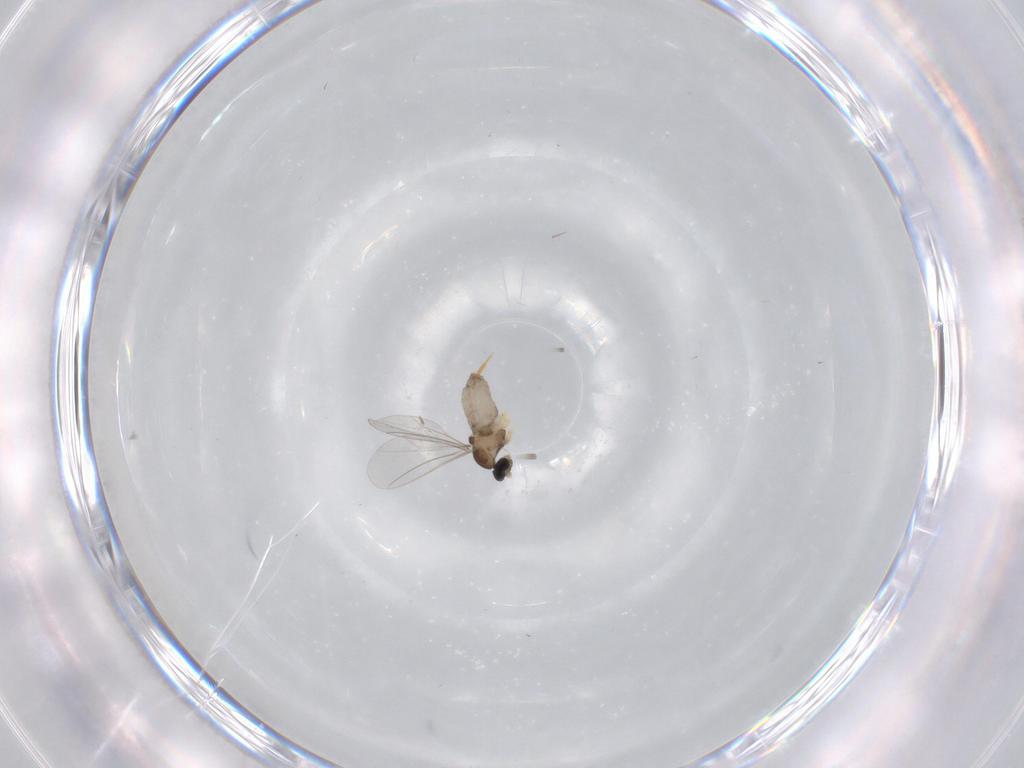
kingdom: Animalia
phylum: Arthropoda
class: Insecta
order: Diptera
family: Cecidomyiidae
